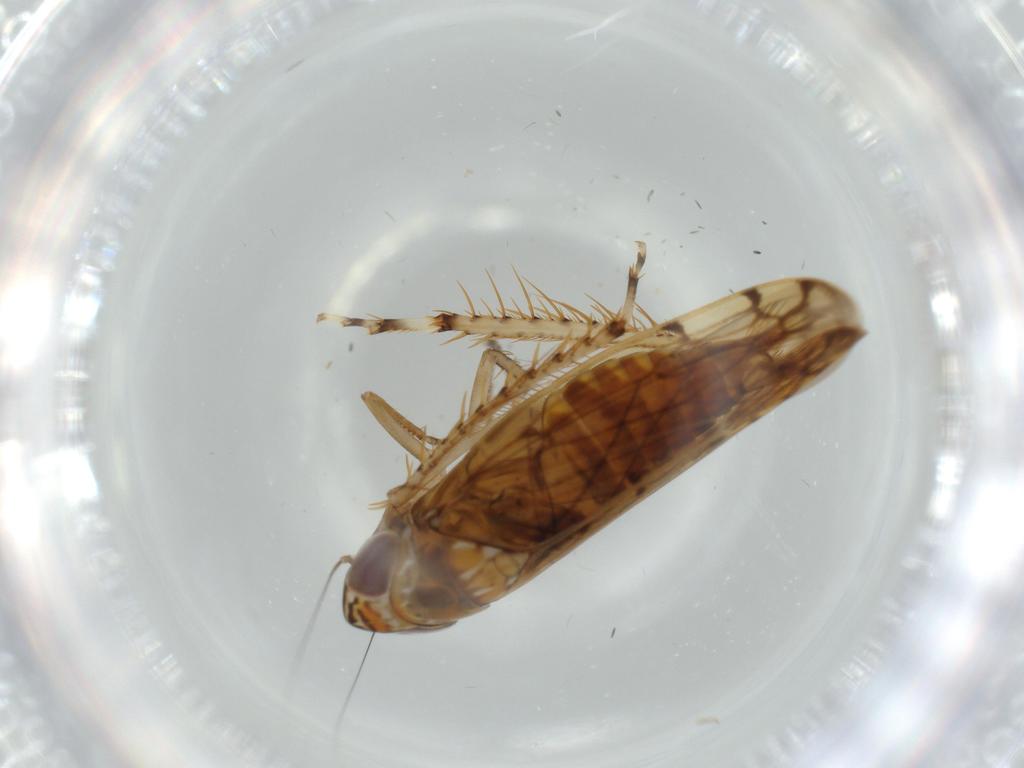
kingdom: Animalia
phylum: Arthropoda
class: Insecta
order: Hemiptera
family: Cicadellidae
